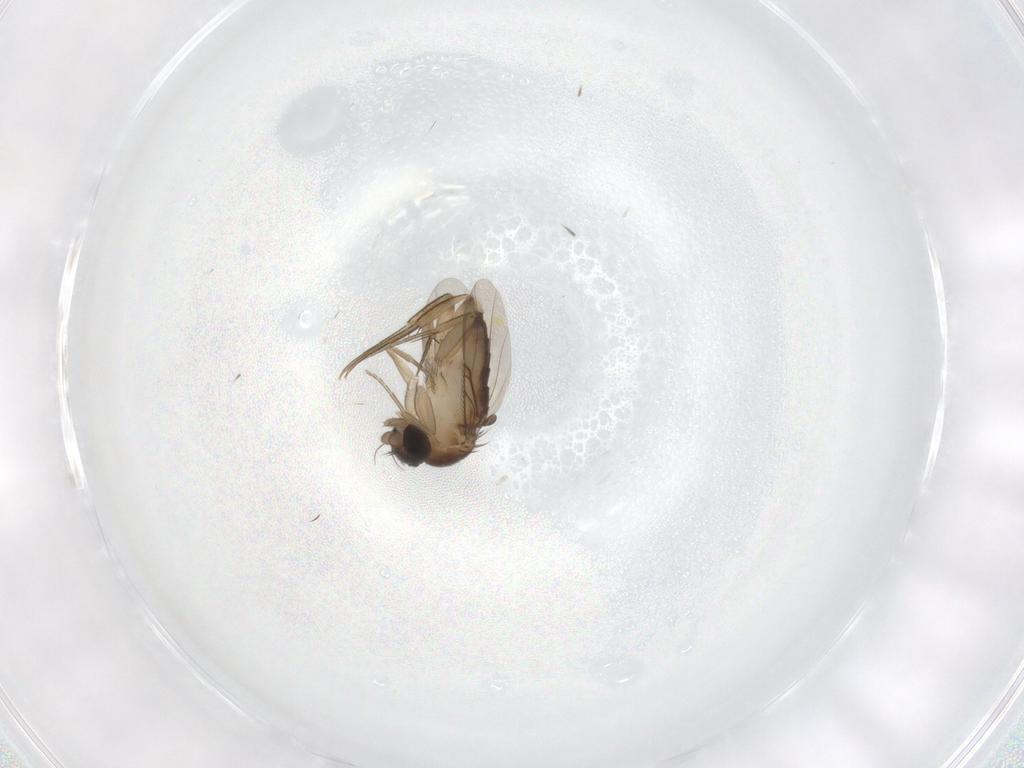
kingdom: Animalia
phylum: Arthropoda
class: Insecta
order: Diptera
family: Phoridae
